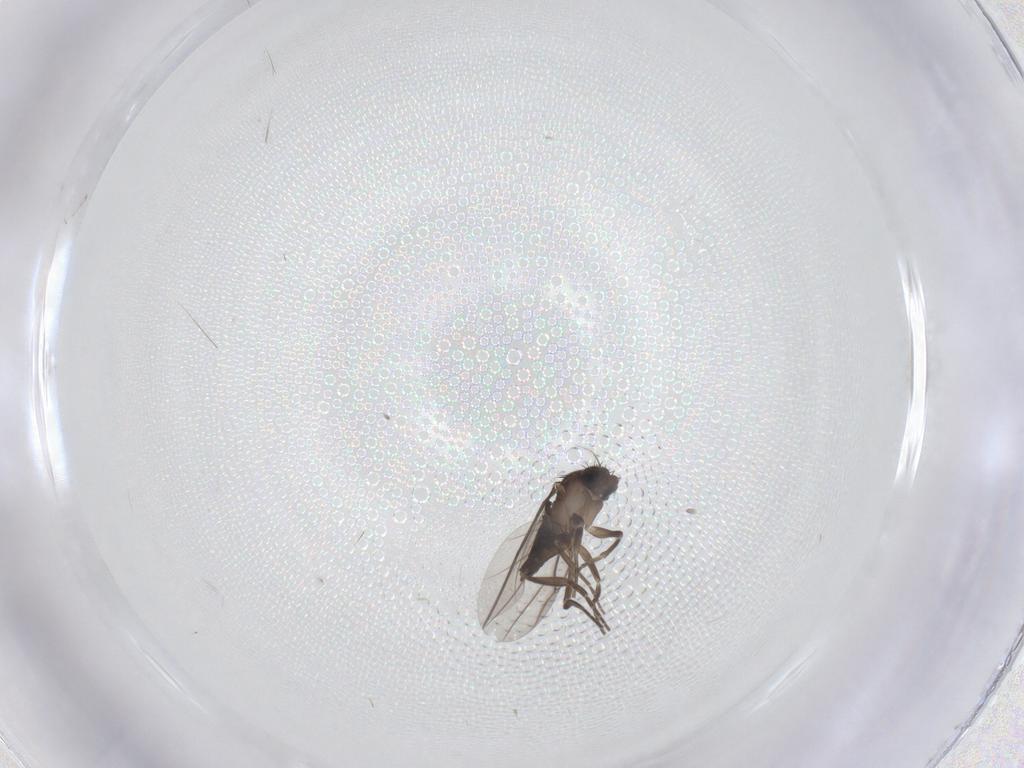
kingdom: Animalia
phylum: Arthropoda
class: Insecta
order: Diptera
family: Cecidomyiidae
